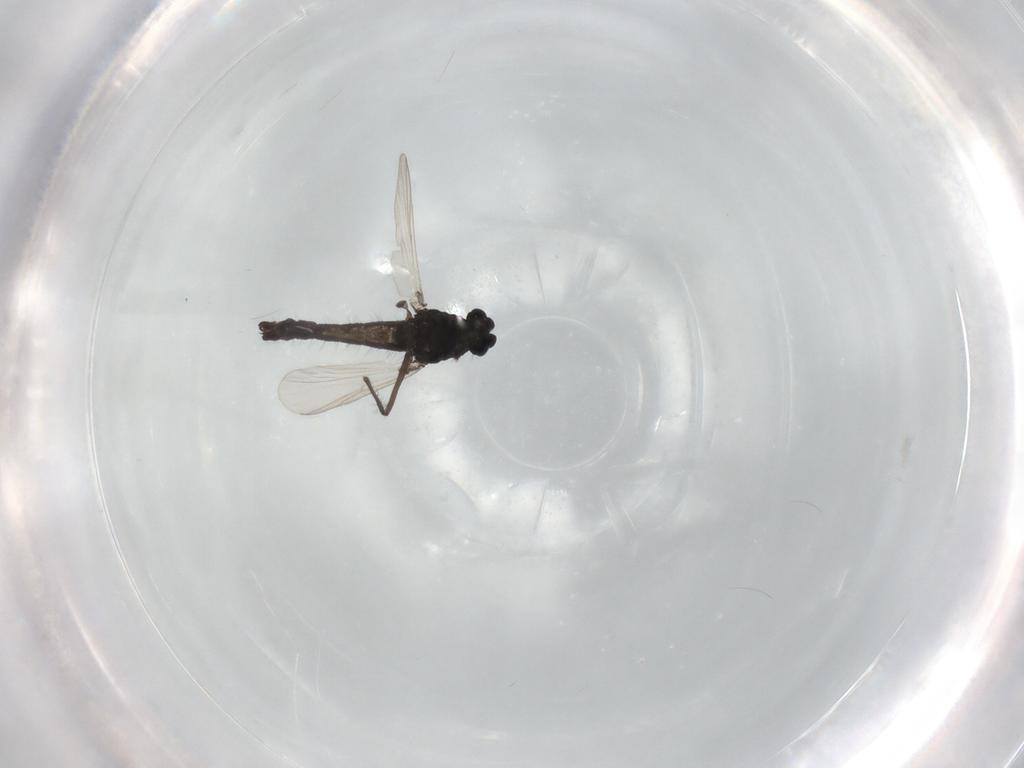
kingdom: Animalia
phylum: Arthropoda
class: Insecta
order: Diptera
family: Chironomidae
